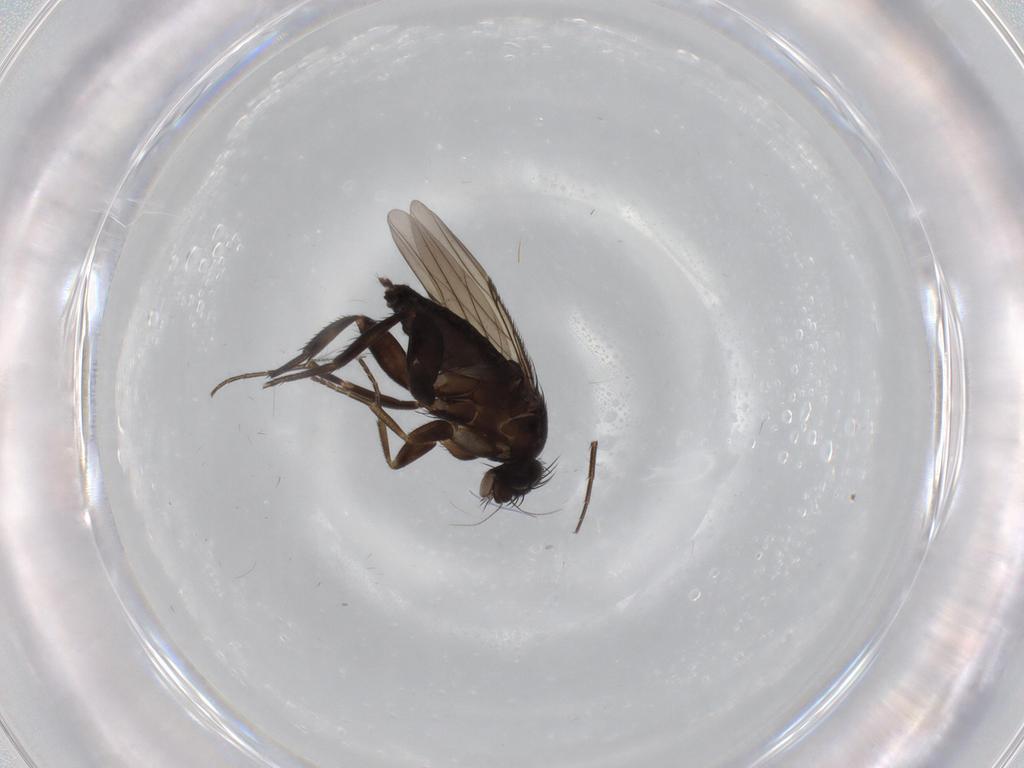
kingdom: Animalia
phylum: Arthropoda
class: Insecta
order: Diptera
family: Phoridae
